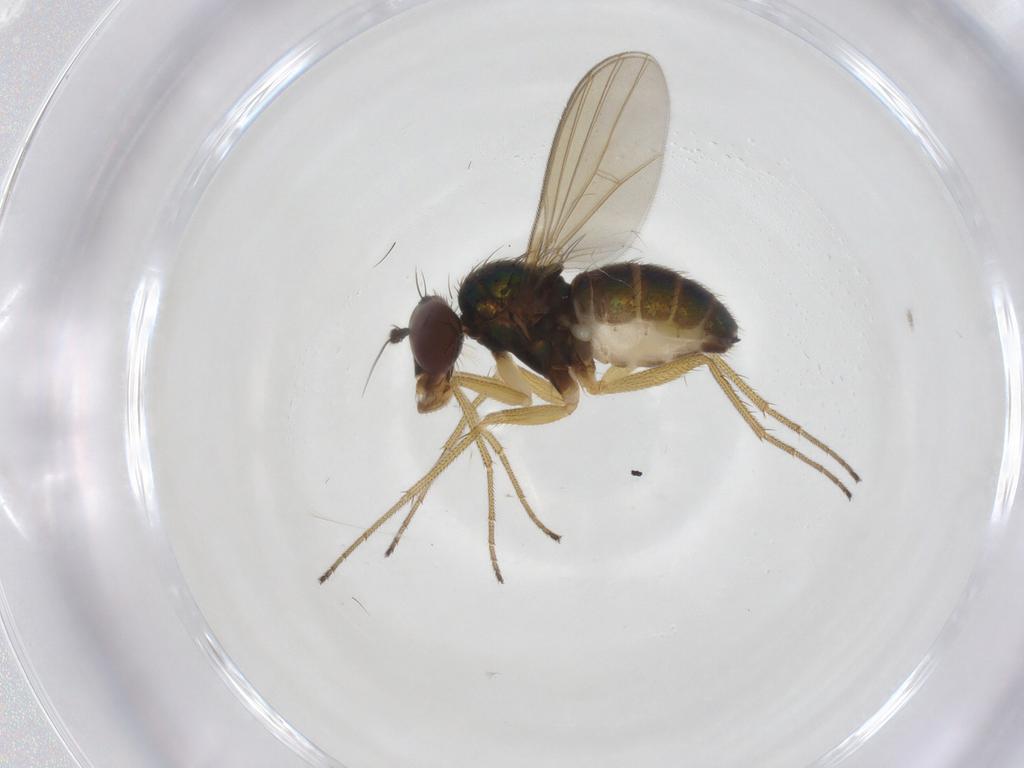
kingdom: Animalia
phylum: Arthropoda
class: Insecta
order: Diptera
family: Dolichopodidae
